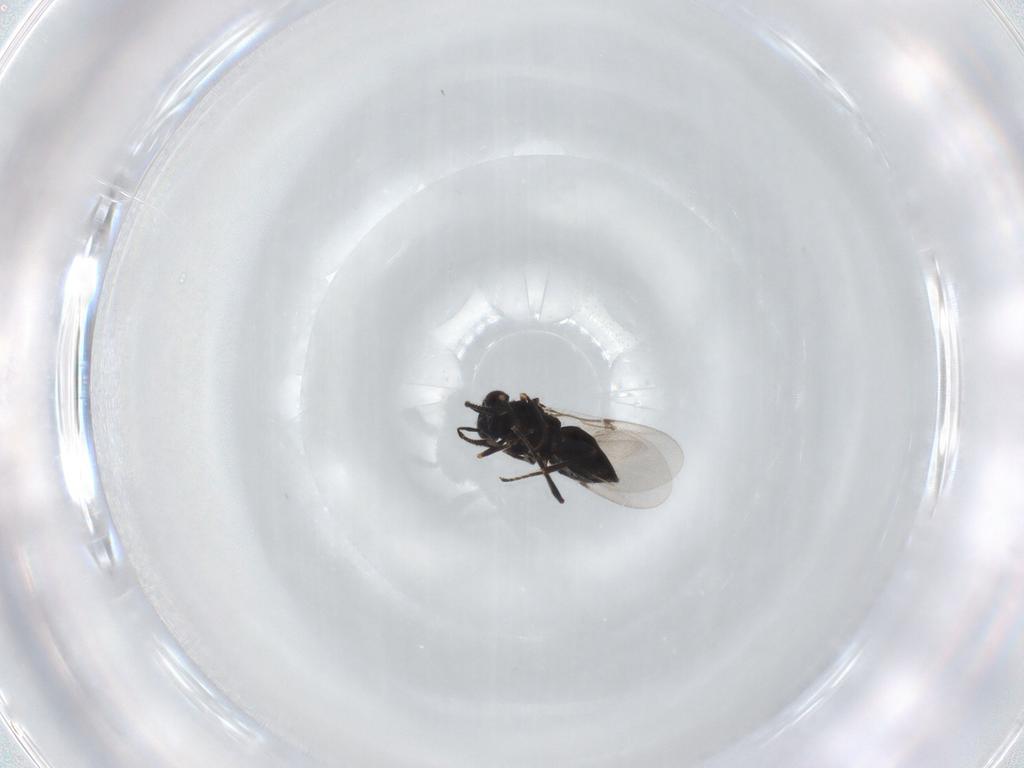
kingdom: Animalia
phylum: Arthropoda
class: Insecta
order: Hymenoptera
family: Encyrtidae
